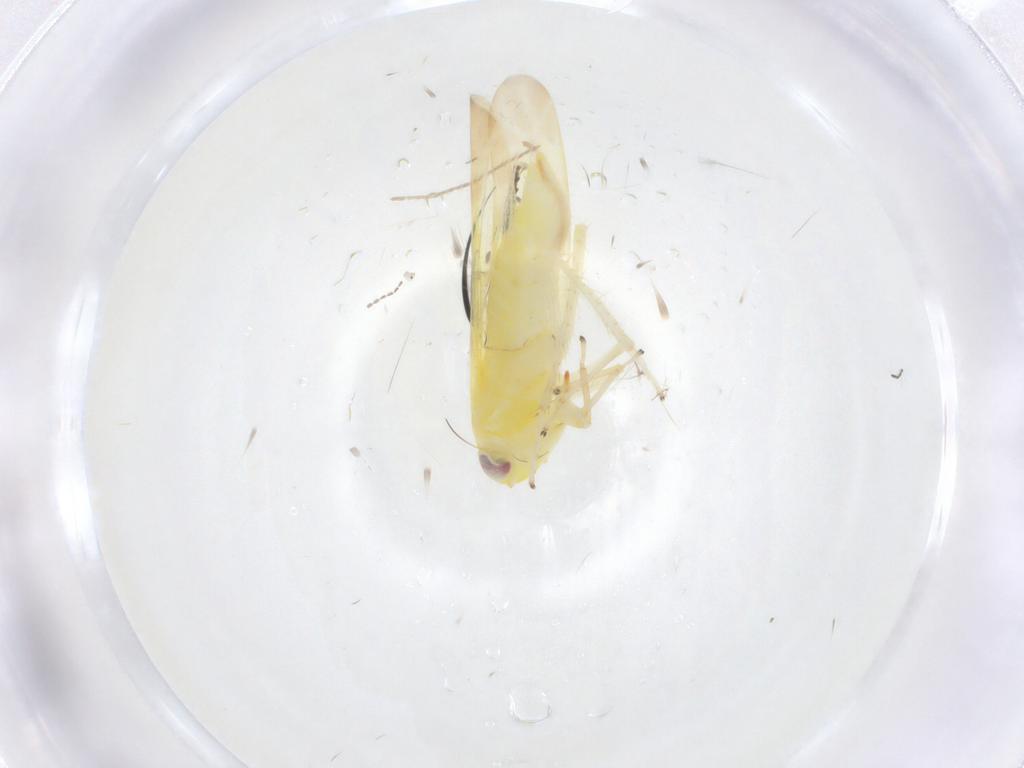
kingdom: Animalia
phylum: Arthropoda
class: Insecta
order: Hemiptera
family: Cicadellidae
